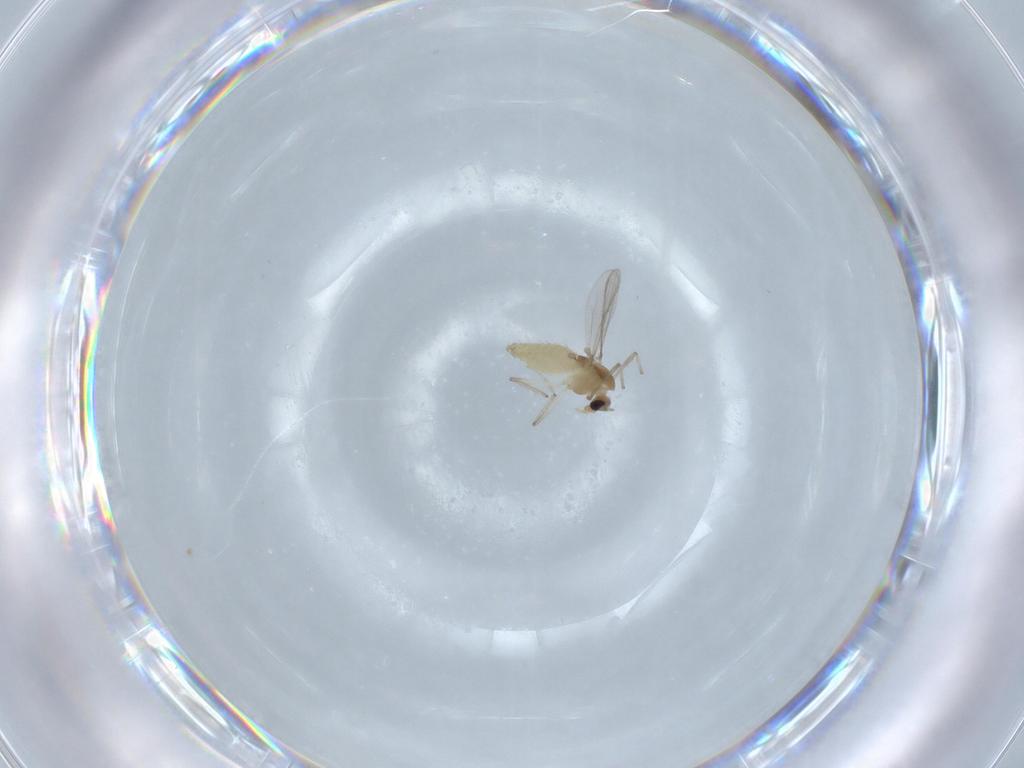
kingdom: Animalia
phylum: Arthropoda
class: Insecta
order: Diptera
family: Chironomidae
